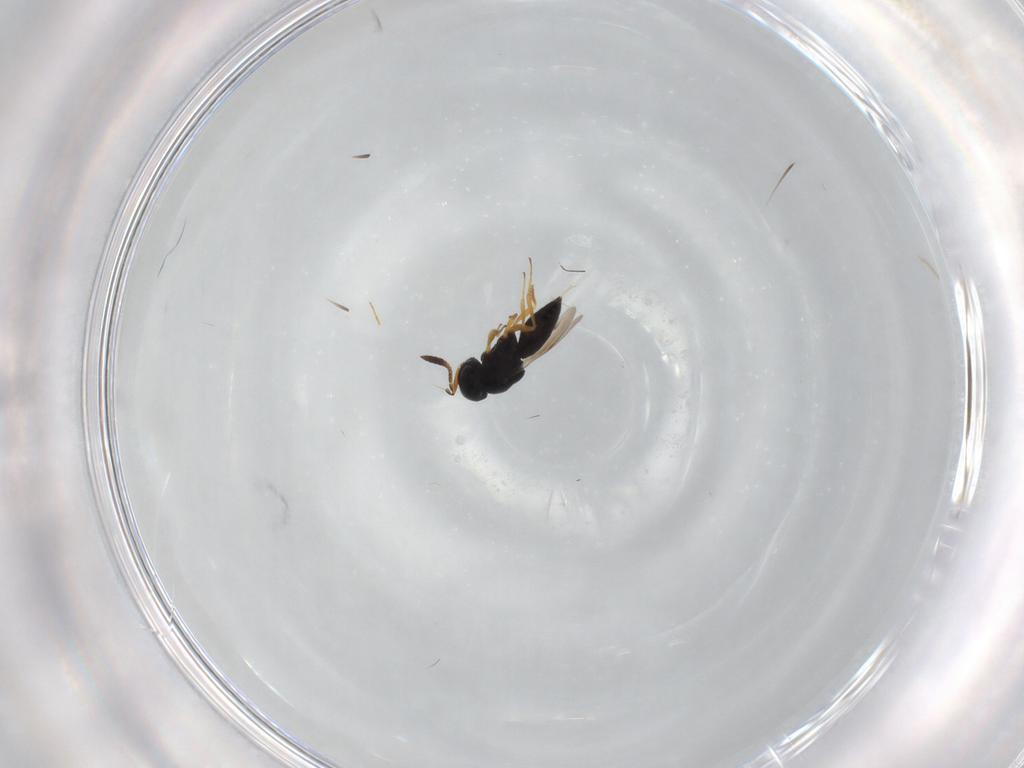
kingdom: Animalia
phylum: Arthropoda
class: Insecta
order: Hymenoptera
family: Scelionidae
